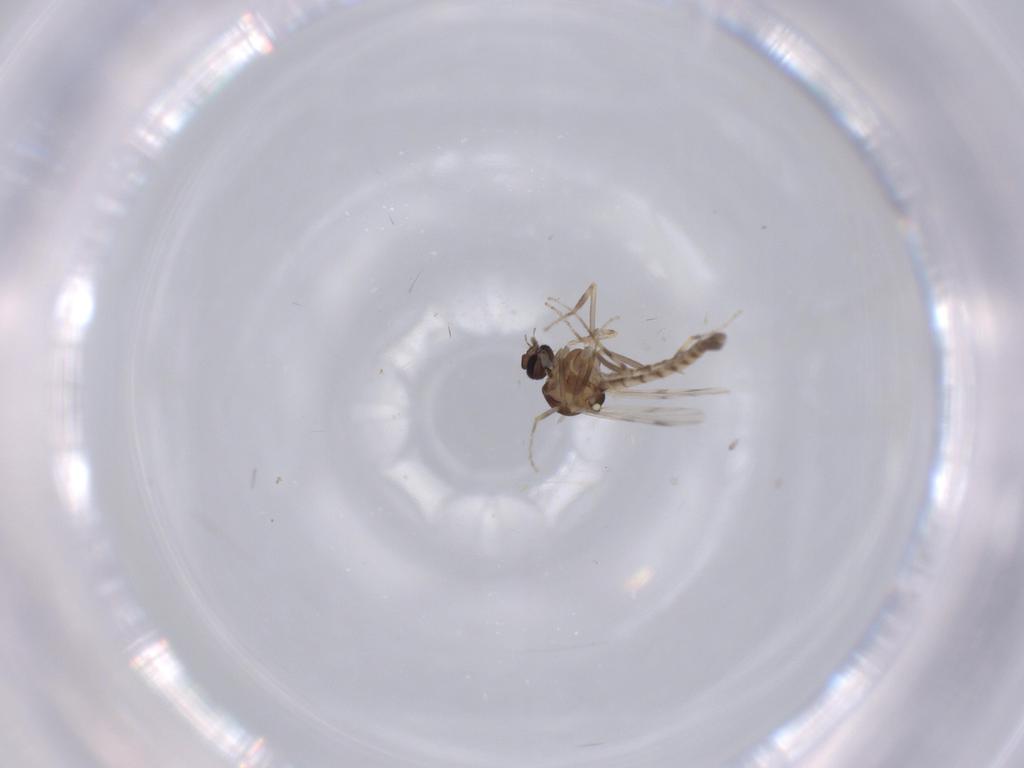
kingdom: Animalia
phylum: Arthropoda
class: Insecta
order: Diptera
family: Ceratopogonidae
